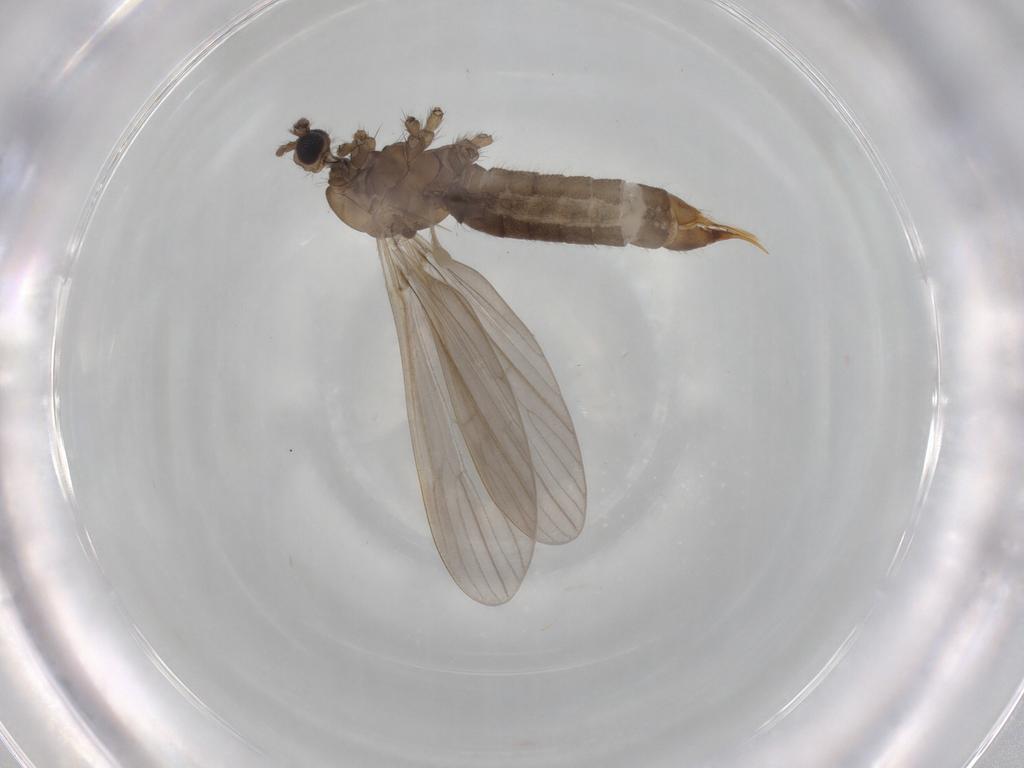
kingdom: Animalia
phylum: Arthropoda
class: Insecta
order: Diptera
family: Limoniidae
